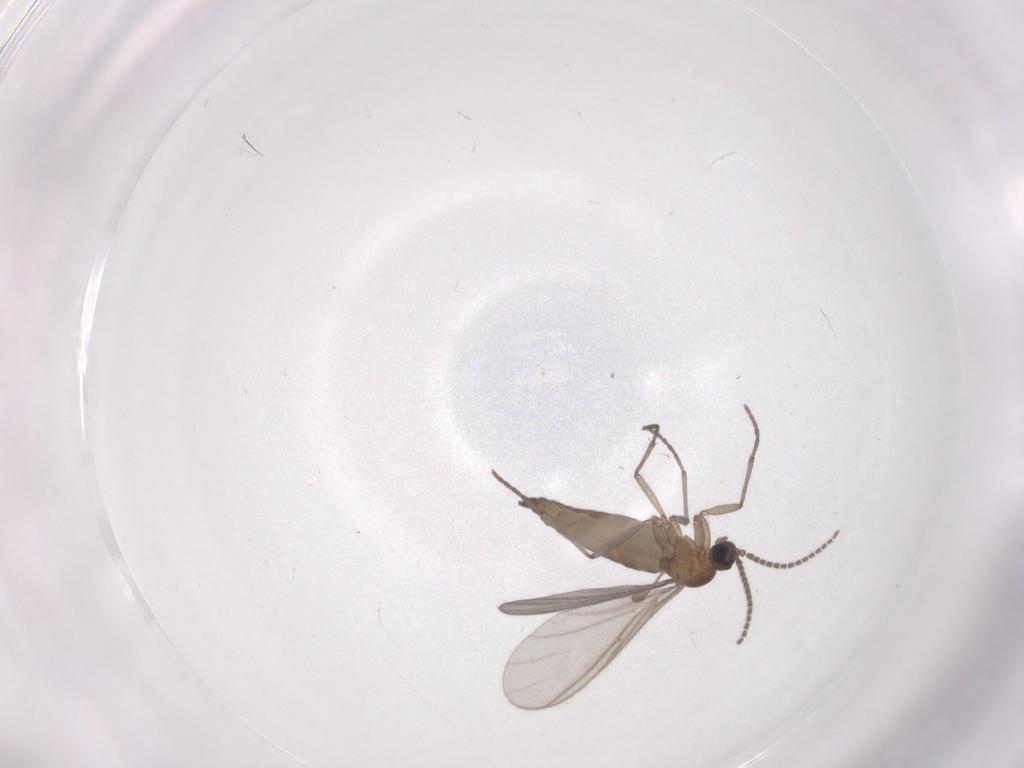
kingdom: Animalia
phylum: Arthropoda
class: Insecta
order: Diptera
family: Sciaridae
